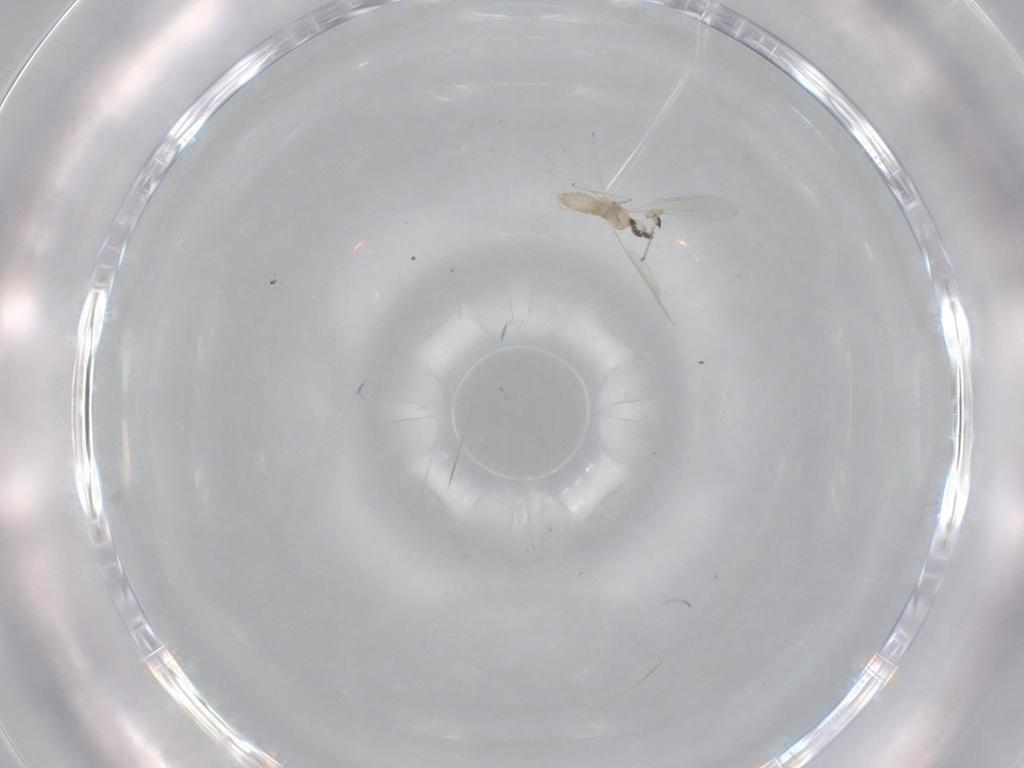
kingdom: Animalia
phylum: Arthropoda
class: Insecta
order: Diptera
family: Cecidomyiidae
